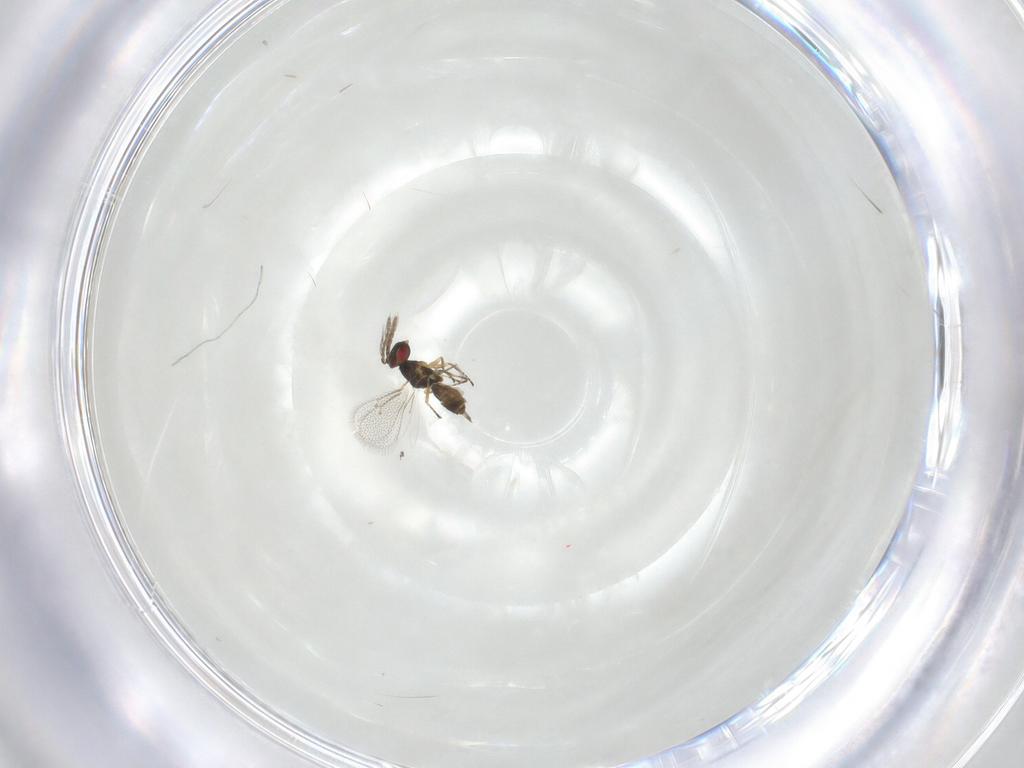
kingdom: Animalia
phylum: Arthropoda
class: Insecta
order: Hymenoptera
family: Eulophidae
